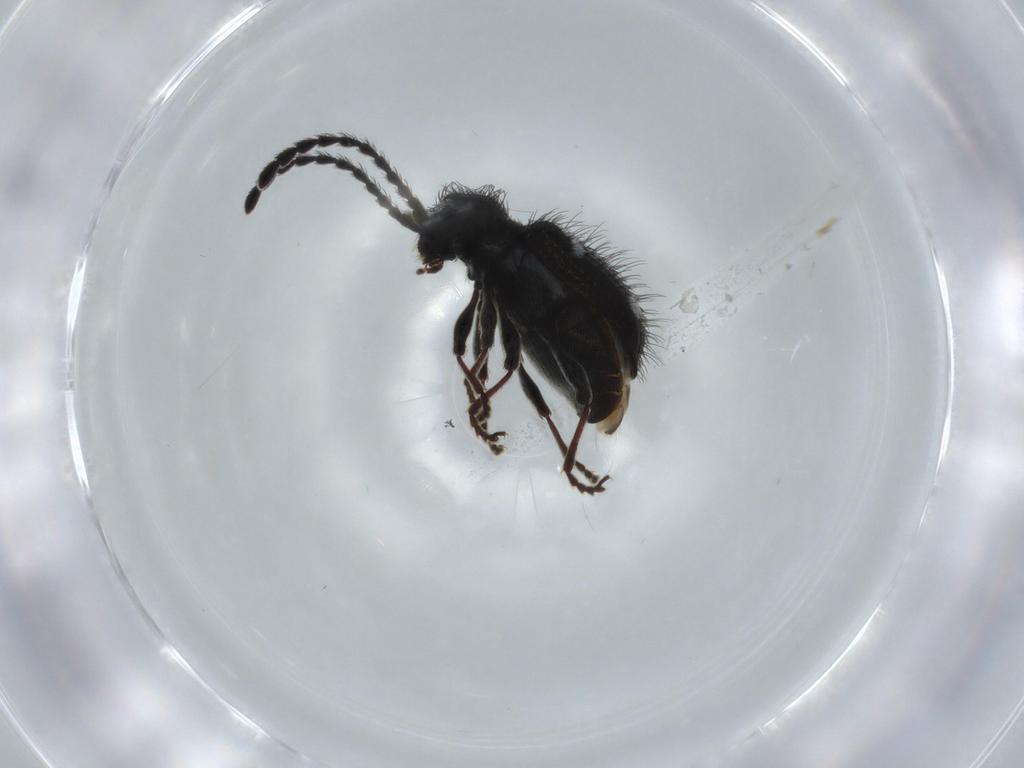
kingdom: Animalia
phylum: Arthropoda
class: Insecta
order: Coleoptera
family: Ptinidae
